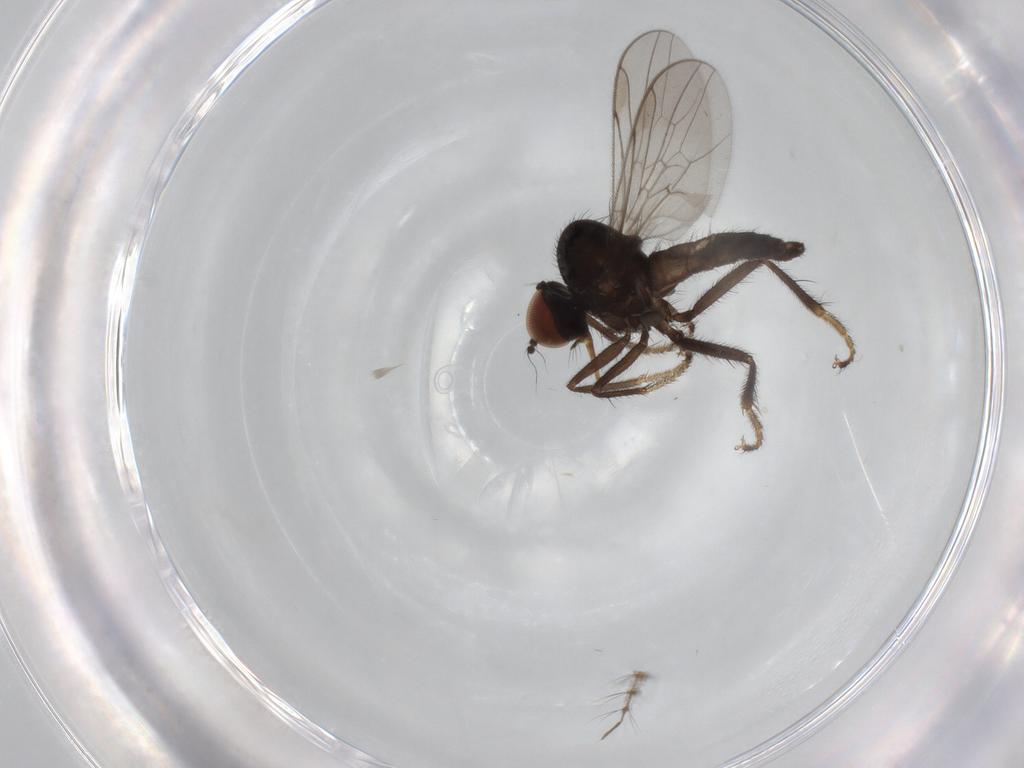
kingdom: Animalia
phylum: Arthropoda
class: Insecta
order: Diptera
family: Hybotidae
